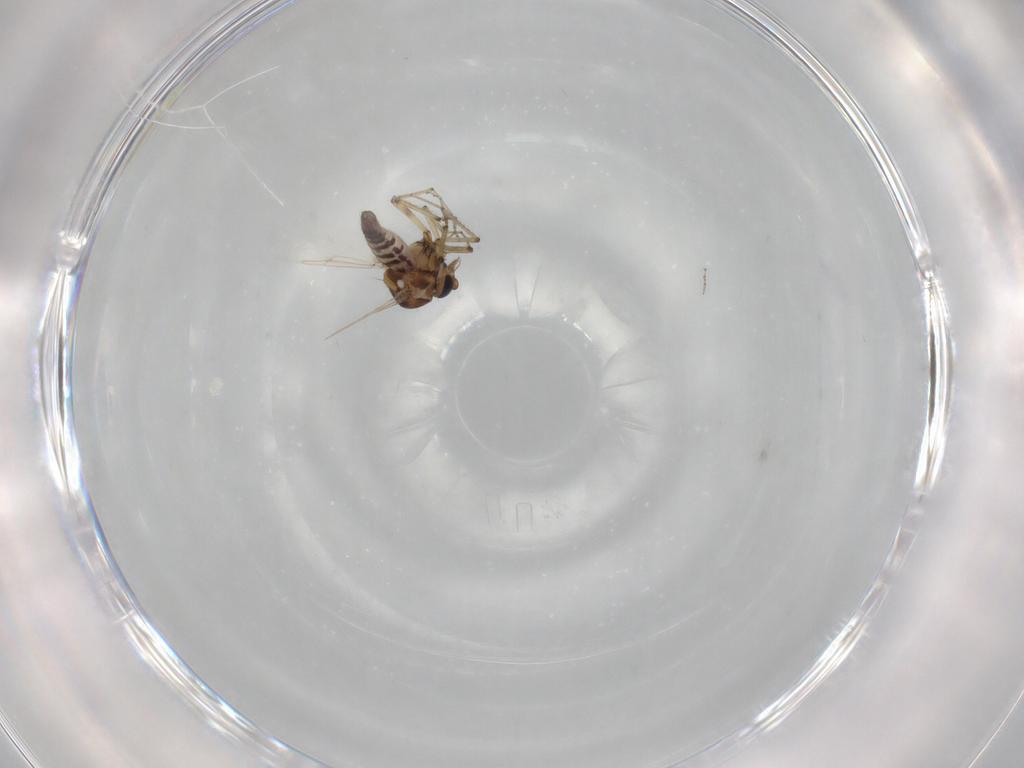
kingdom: Animalia
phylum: Arthropoda
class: Insecta
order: Diptera
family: Ceratopogonidae
